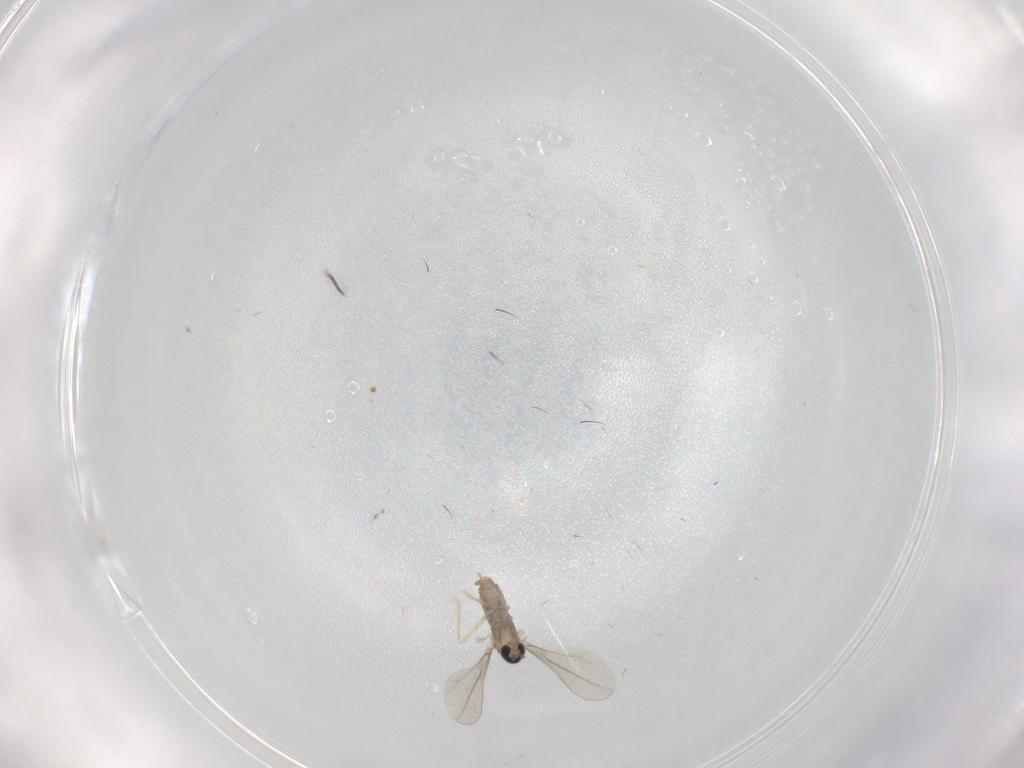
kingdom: Animalia
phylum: Arthropoda
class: Insecta
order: Diptera
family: Cecidomyiidae
